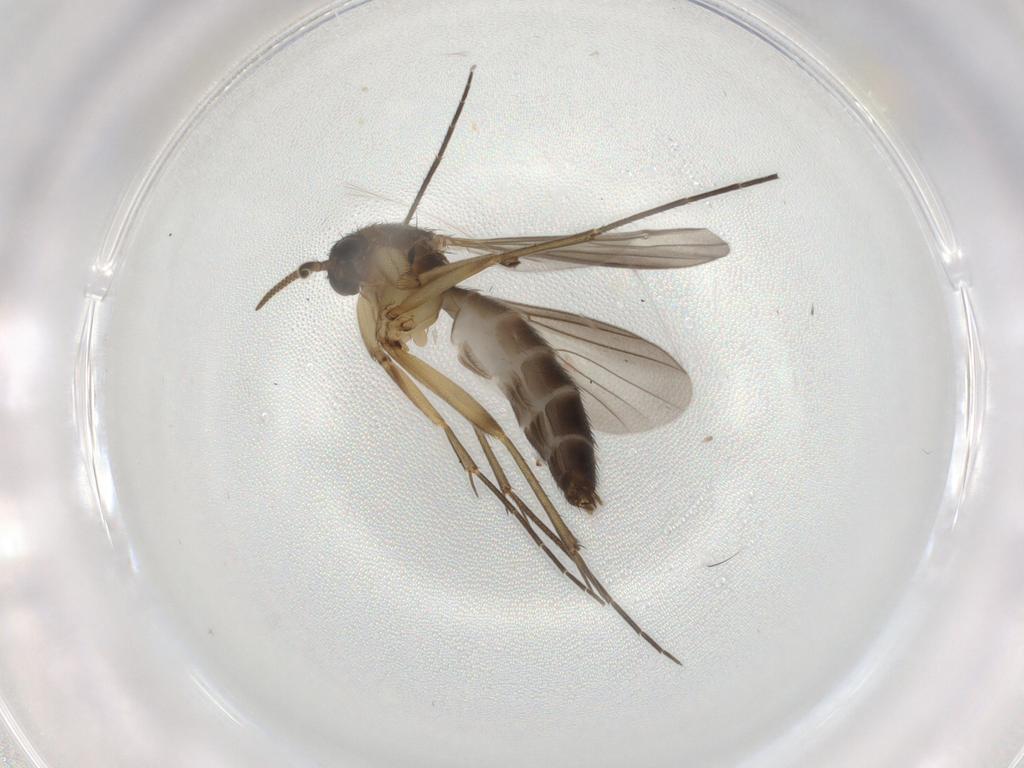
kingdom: Animalia
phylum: Arthropoda
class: Insecta
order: Diptera
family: Mycetophilidae
